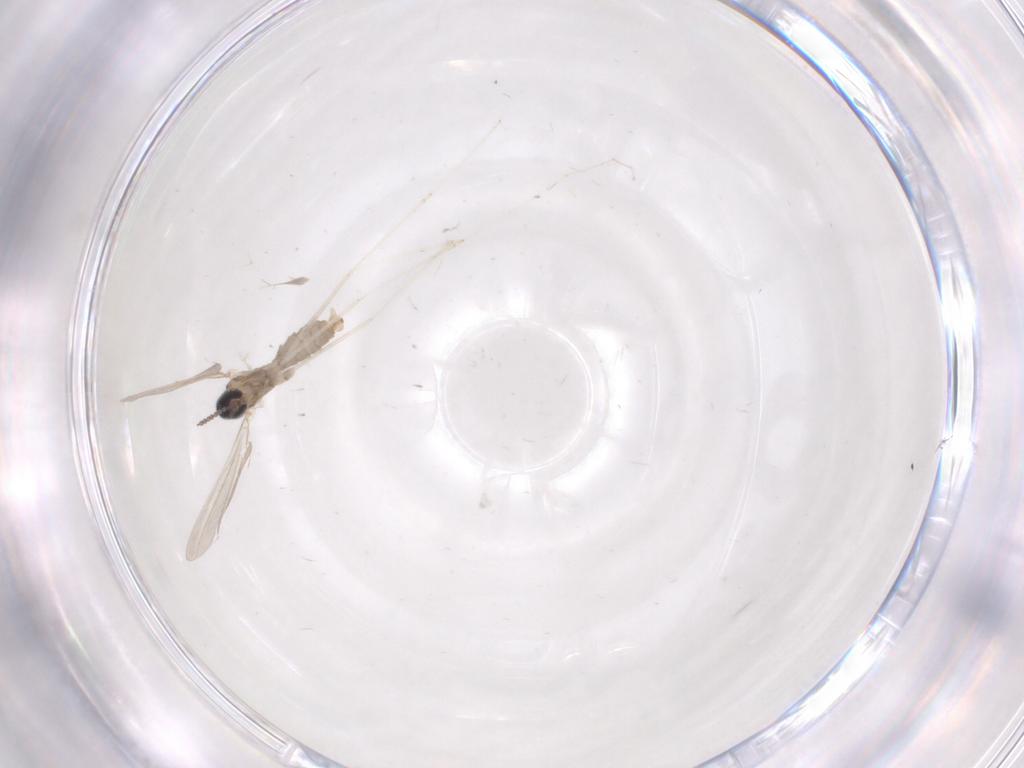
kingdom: Animalia
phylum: Arthropoda
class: Insecta
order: Diptera
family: Cecidomyiidae
